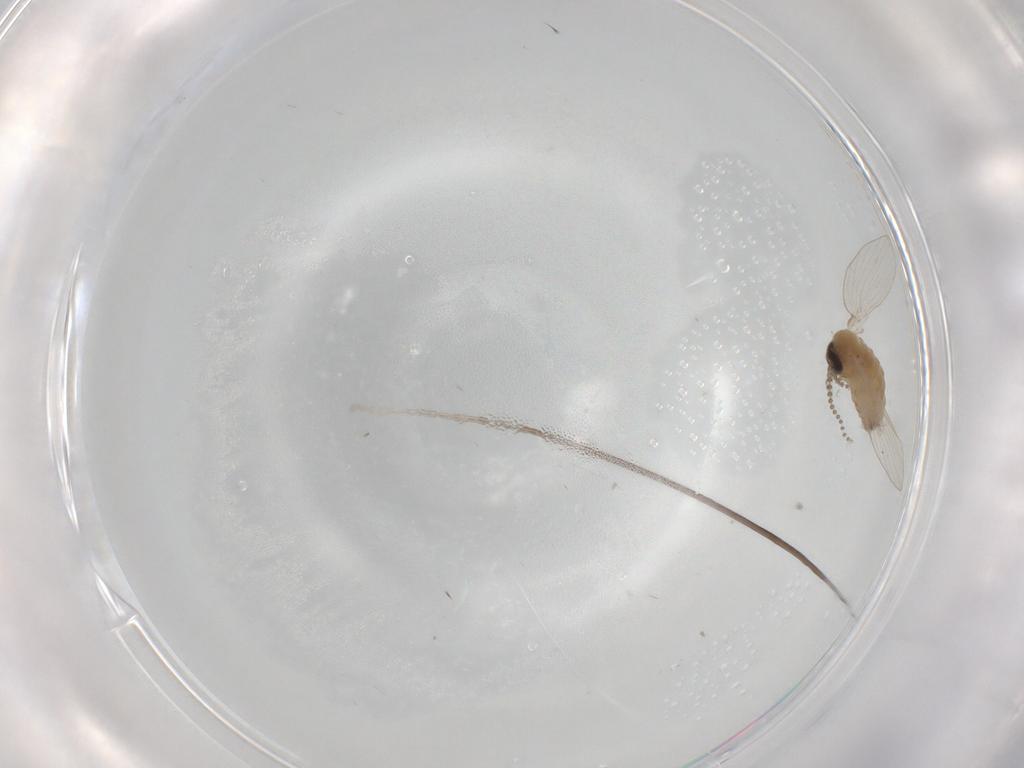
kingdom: Animalia
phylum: Arthropoda
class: Insecta
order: Diptera
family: Psychodidae
